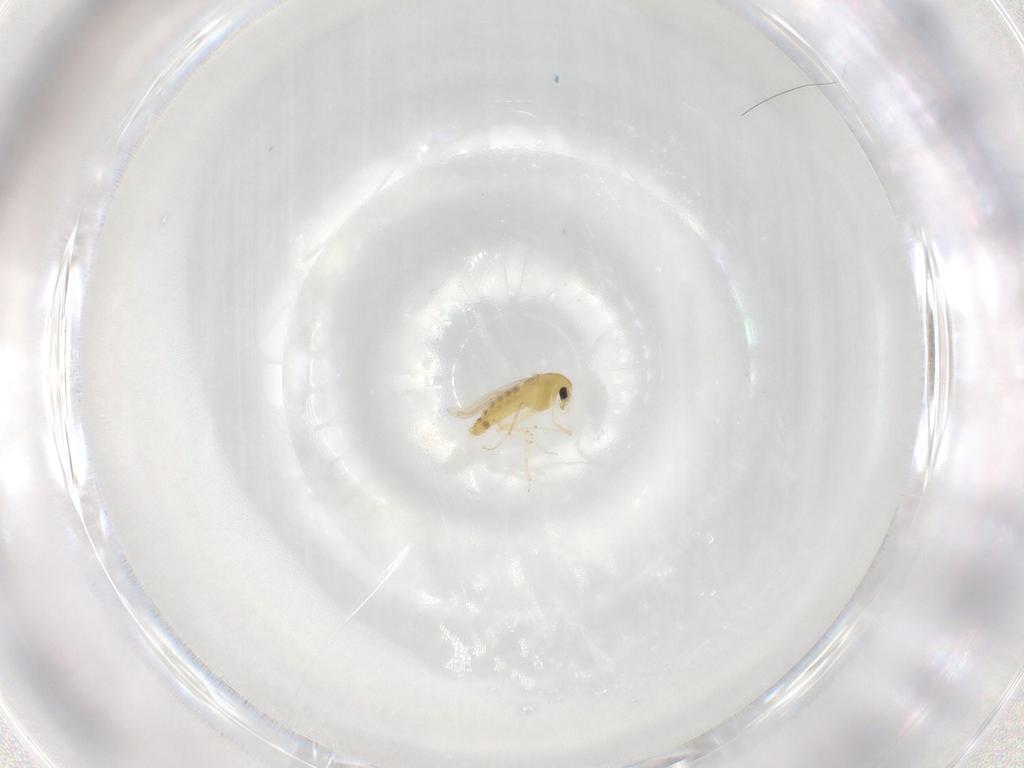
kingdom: Animalia
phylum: Arthropoda
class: Insecta
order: Diptera
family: Chironomidae
